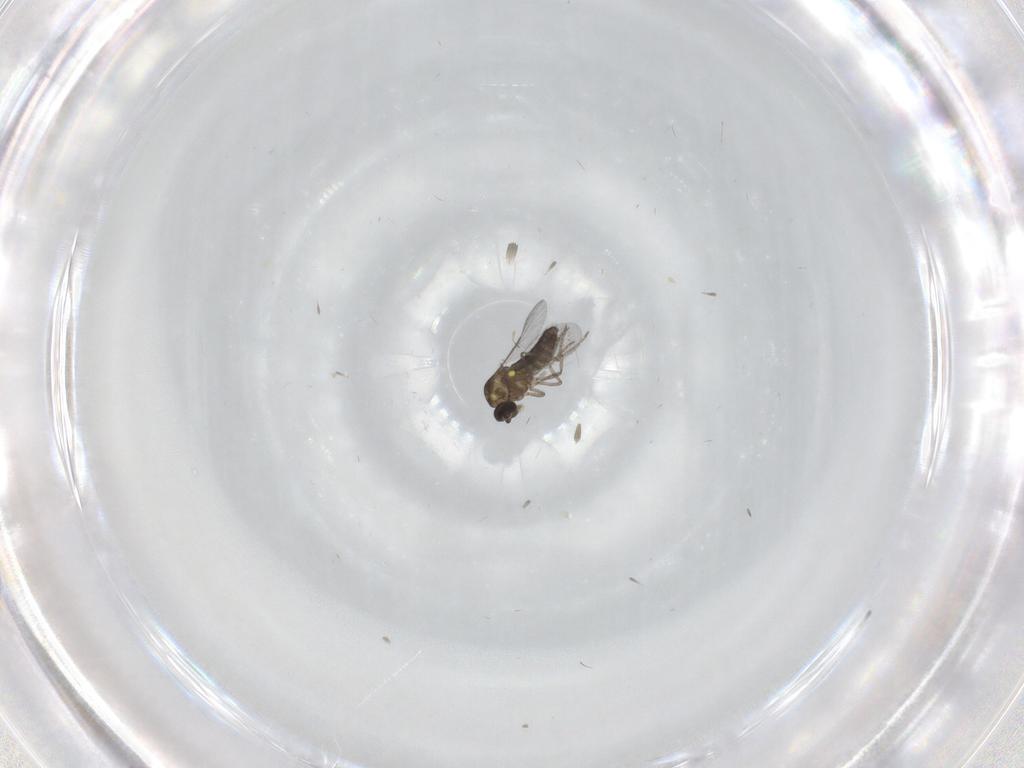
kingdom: Animalia
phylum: Arthropoda
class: Insecta
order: Diptera
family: Ceratopogonidae
